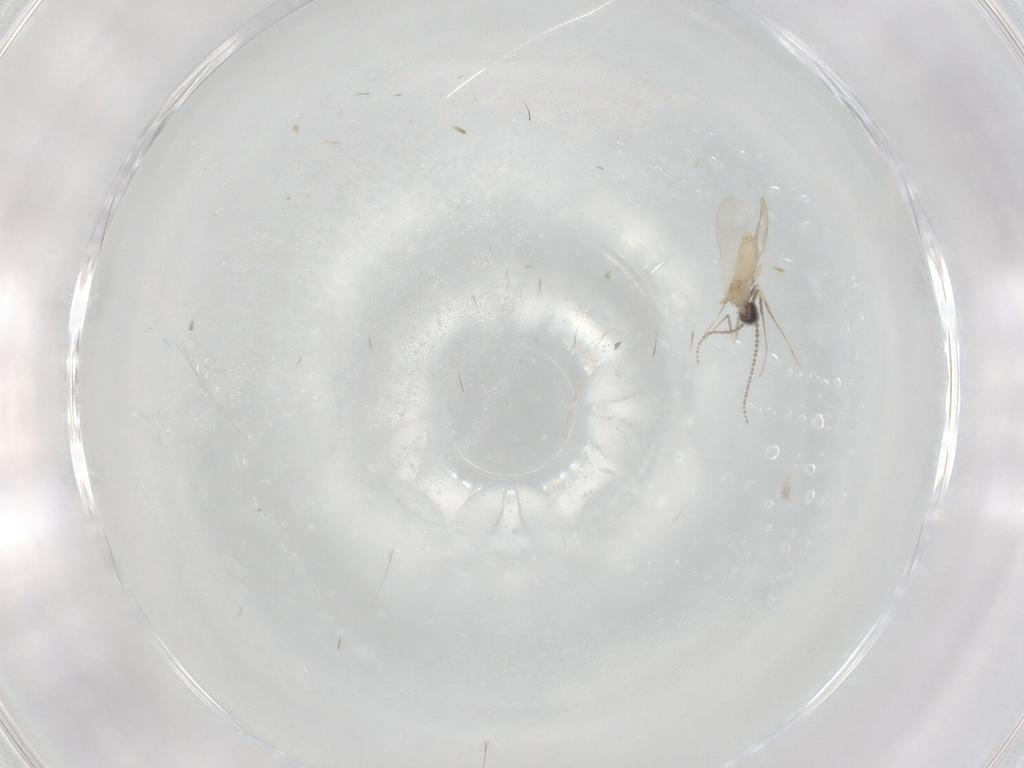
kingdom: Animalia
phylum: Arthropoda
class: Insecta
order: Diptera
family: Cecidomyiidae
